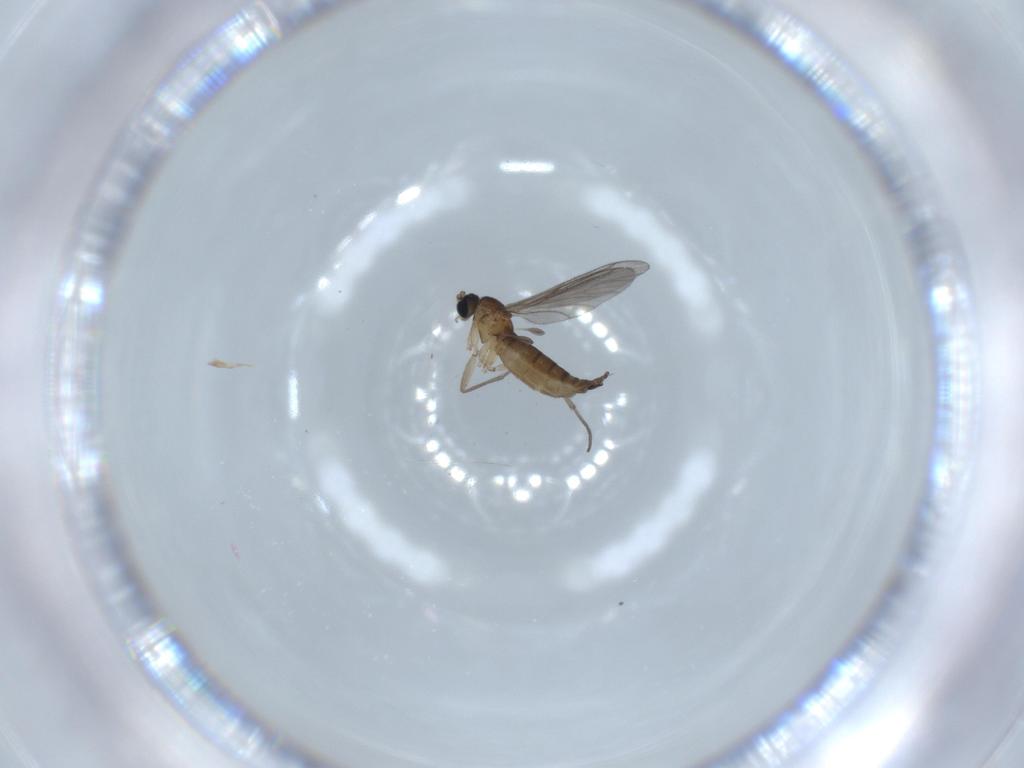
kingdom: Animalia
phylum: Arthropoda
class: Insecta
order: Diptera
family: Sciaridae
